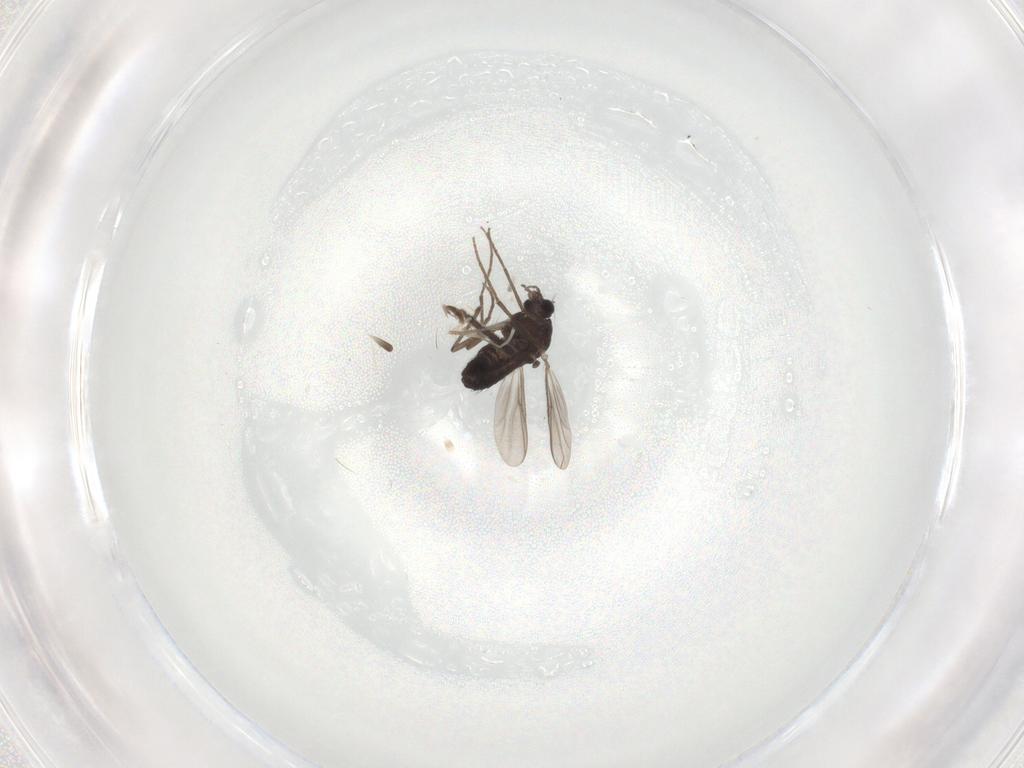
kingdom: Animalia
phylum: Arthropoda
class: Insecta
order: Diptera
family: Chironomidae
